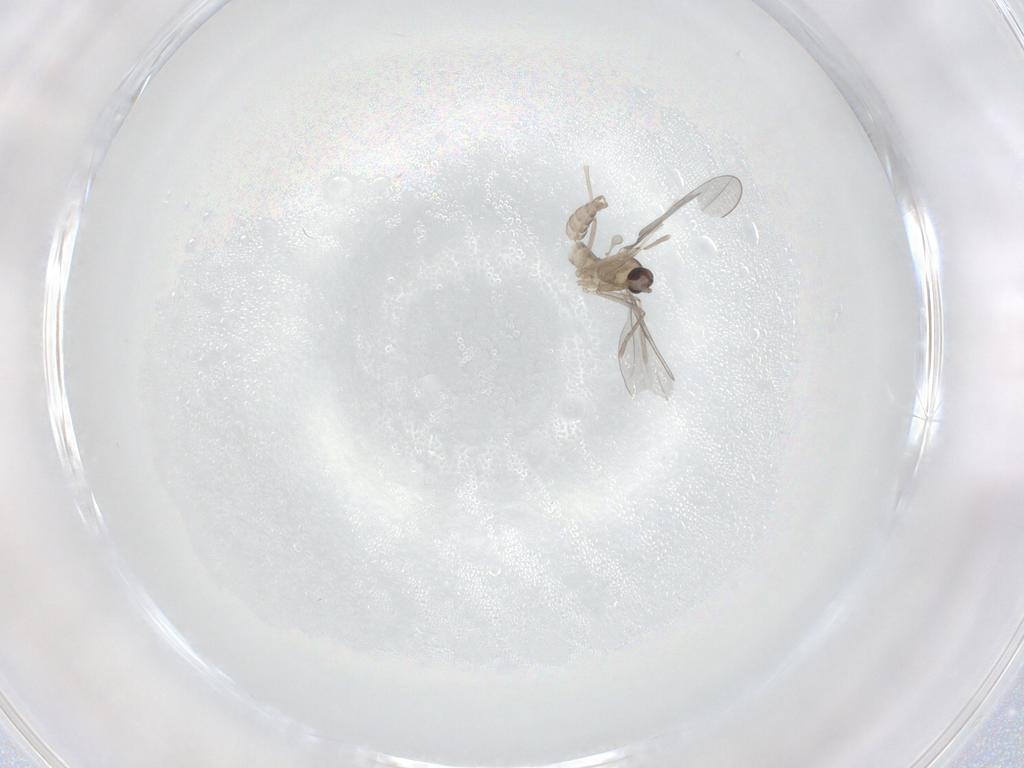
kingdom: Animalia
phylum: Arthropoda
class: Insecta
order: Diptera
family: Cecidomyiidae
